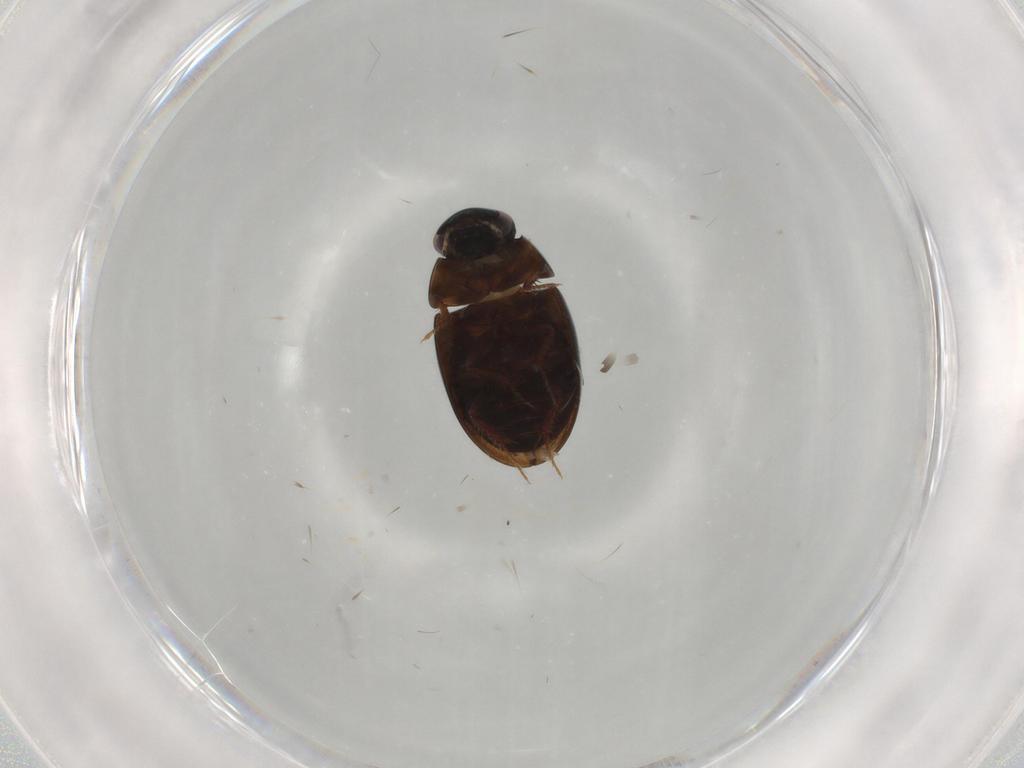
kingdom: Animalia
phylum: Arthropoda
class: Insecta
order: Coleoptera
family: Hydrophilidae
